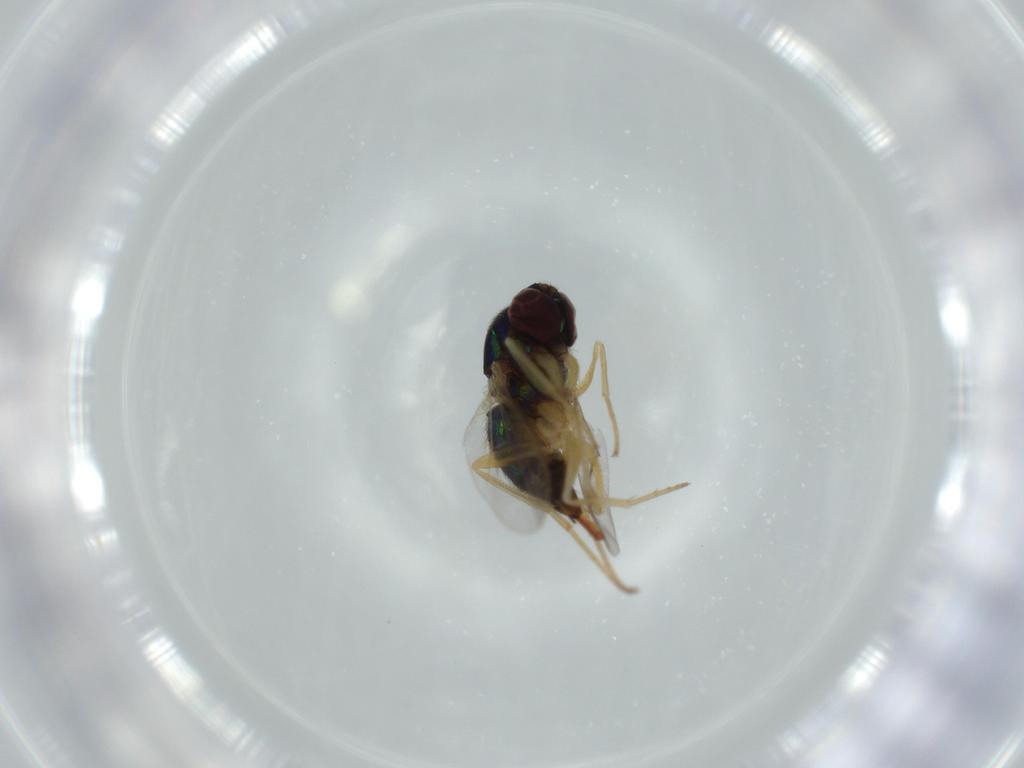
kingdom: Animalia
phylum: Arthropoda
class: Insecta
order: Diptera
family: Dolichopodidae
